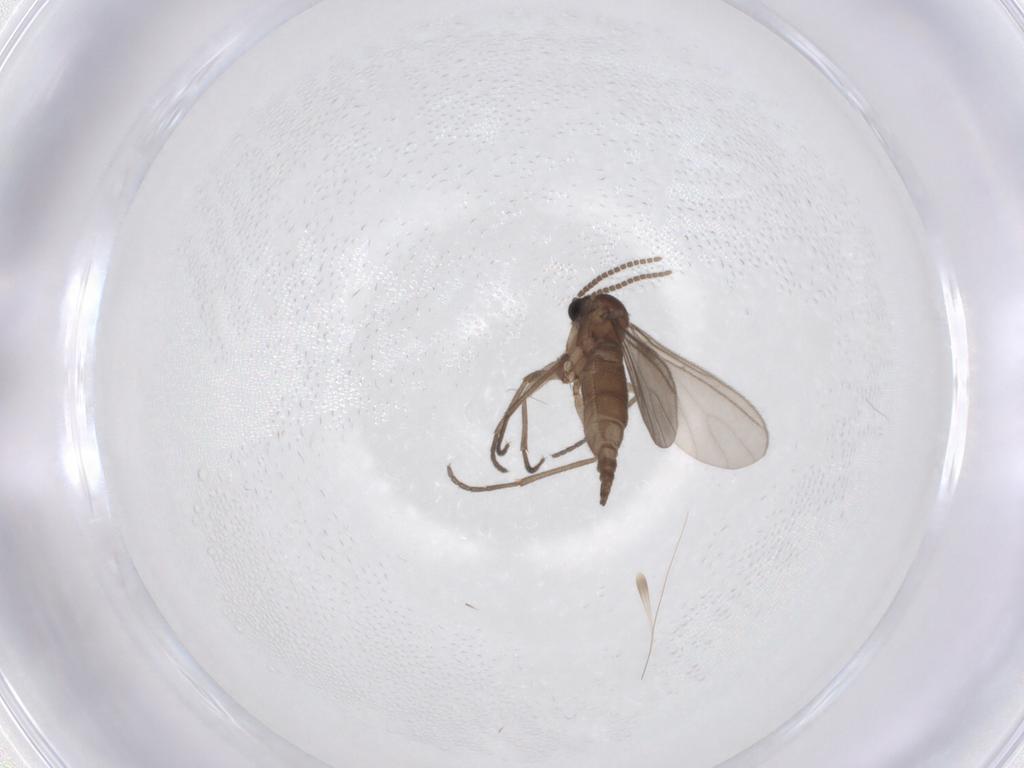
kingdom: Animalia
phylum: Arthropoda
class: Insecta
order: Diptera
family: Sciaridae
